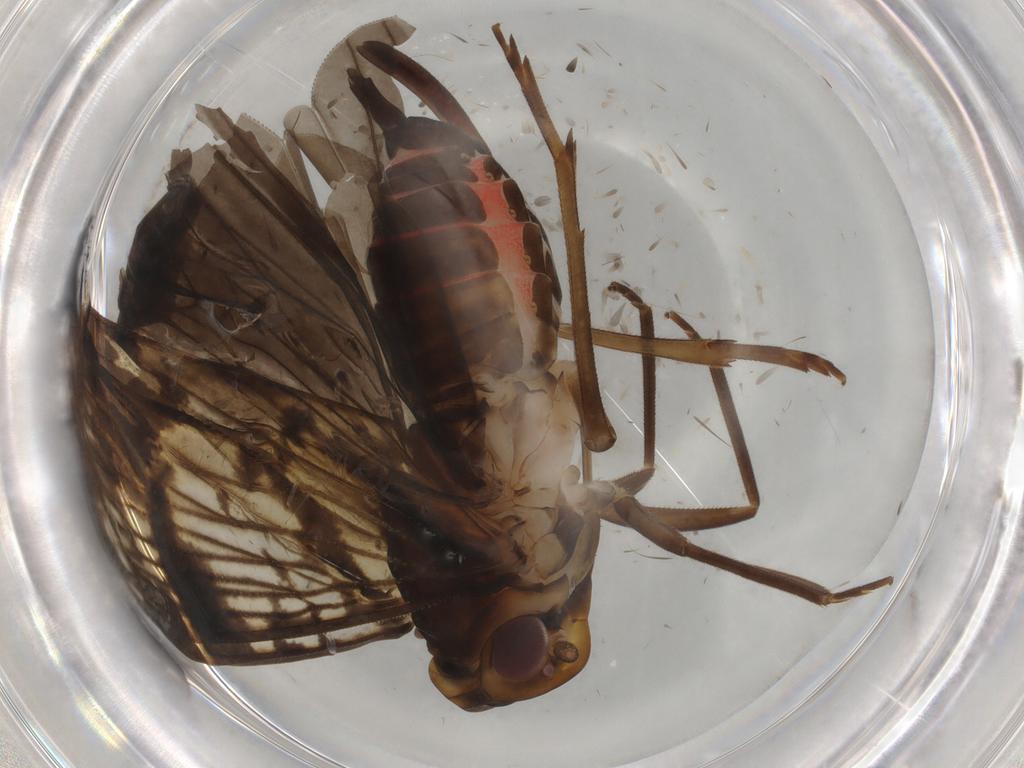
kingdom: Animalia
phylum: Arthropoda
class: Insecta
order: Hemiptera
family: Cixiidae
